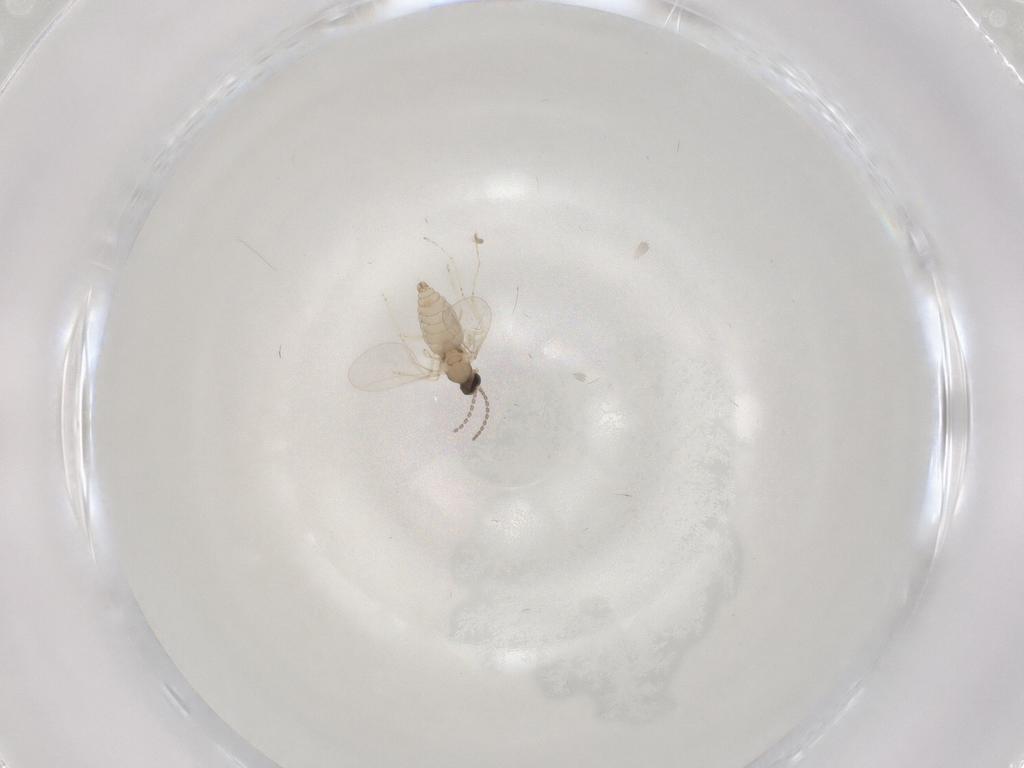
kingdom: Animalia
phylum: Arthropoda
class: Insecta
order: Diptera
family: Cecidomyiidae
